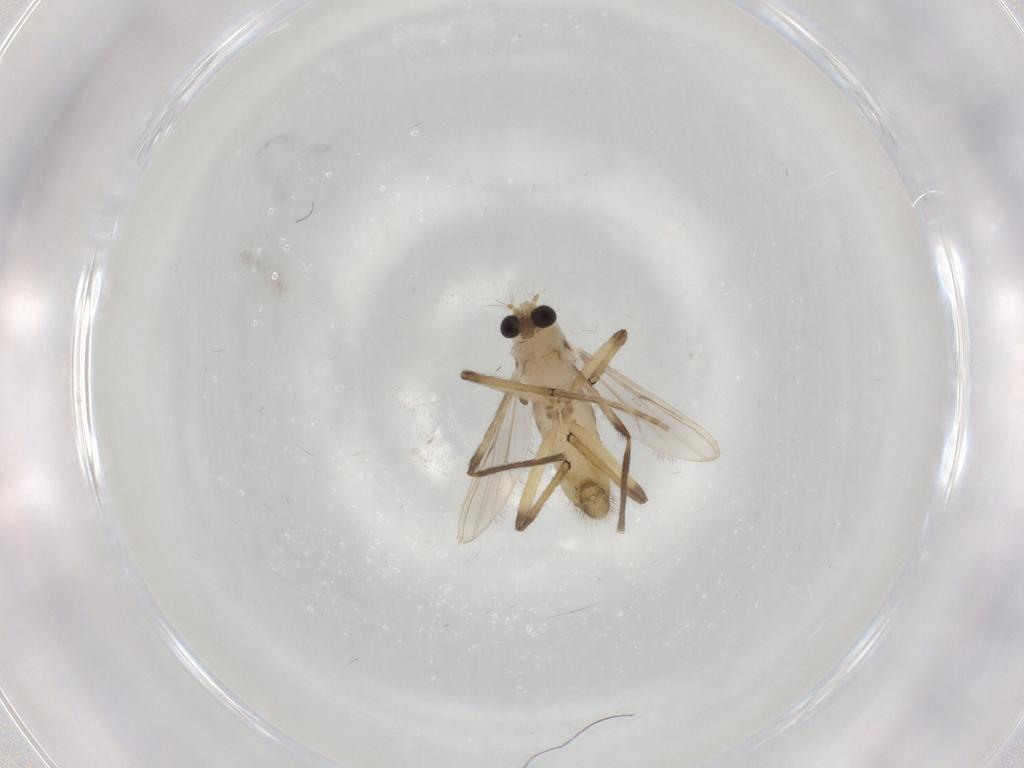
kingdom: Animalia
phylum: Arthropoda
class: Insecta
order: Diptera
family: Chironomidae
